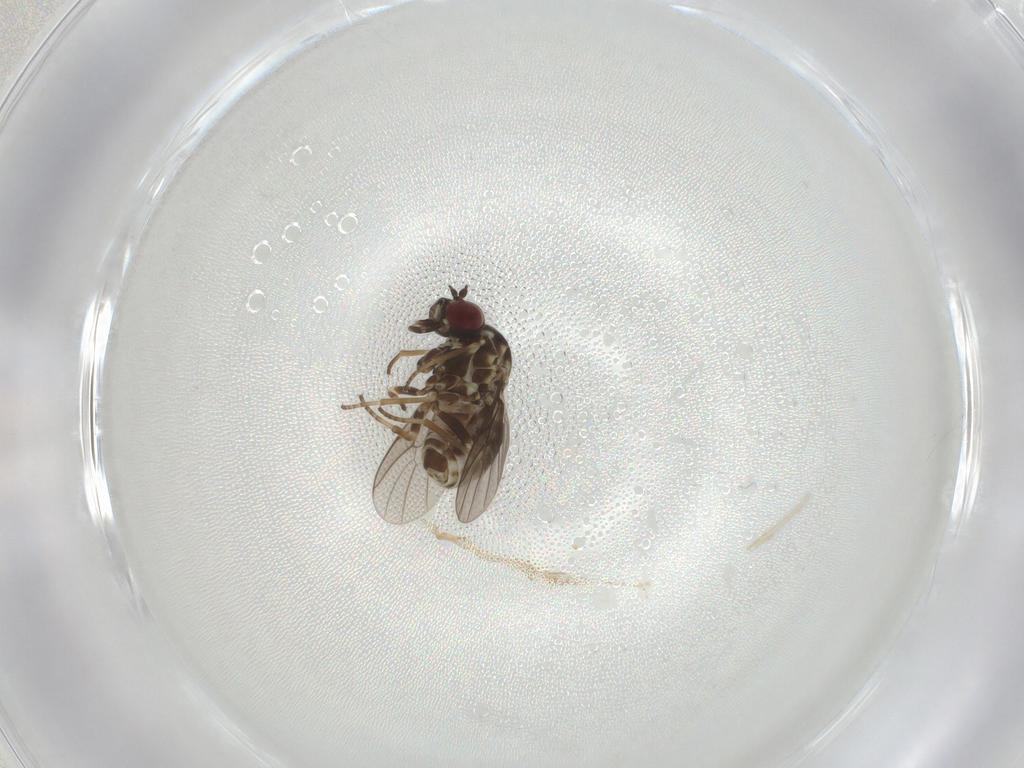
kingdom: Animalia
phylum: Arthropoda
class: Insecta
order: Diptera
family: Bombyliidae
